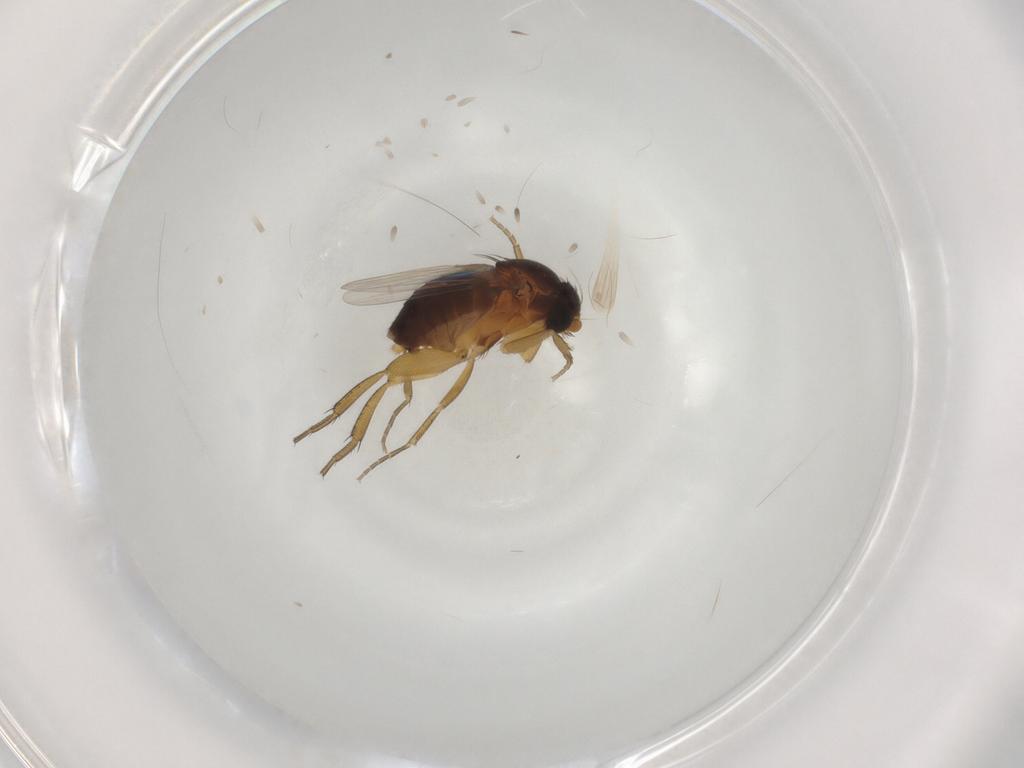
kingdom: Animalia
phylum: Arthropoda
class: Insecta
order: Diptera
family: Phoridae
